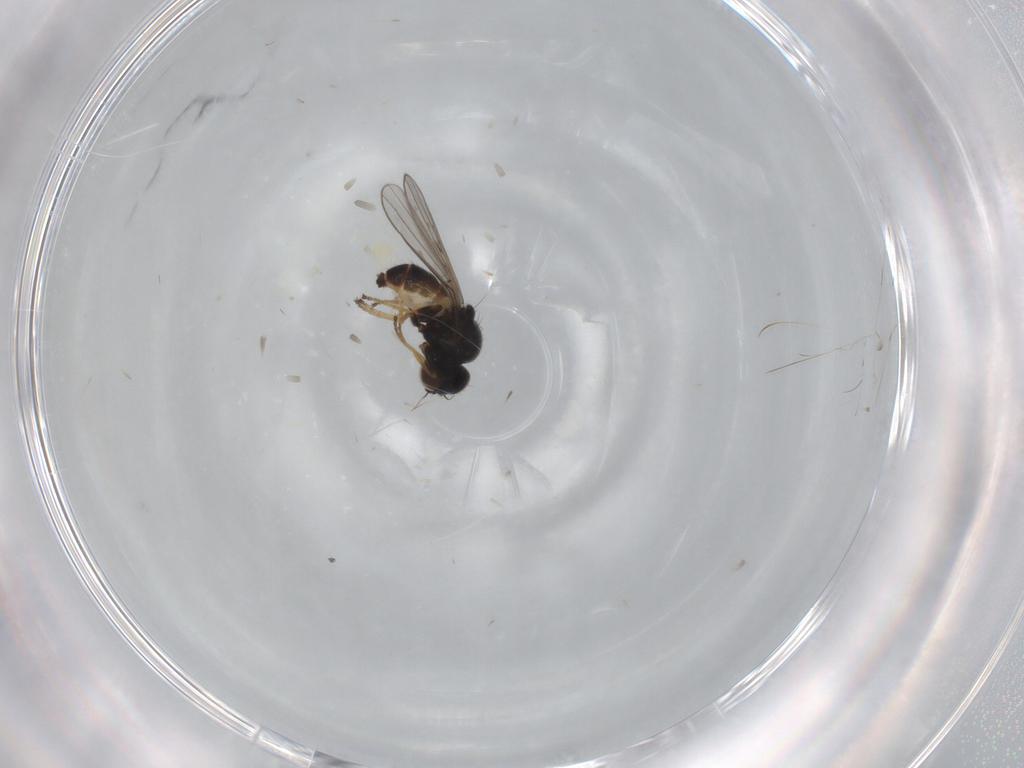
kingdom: Animalia
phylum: Arthropoda
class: Insecta
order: Diptera
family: Chloropidae
